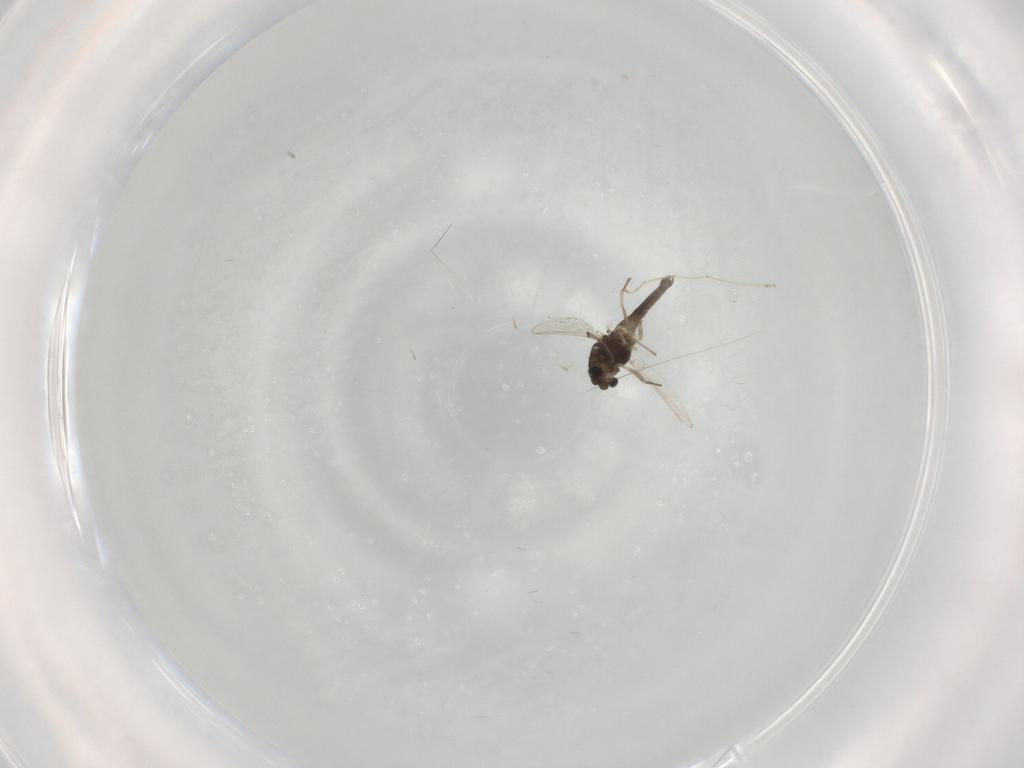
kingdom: Animalia
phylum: Arthropoda
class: Insecta
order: Diptera
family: Cecidomyiidae
